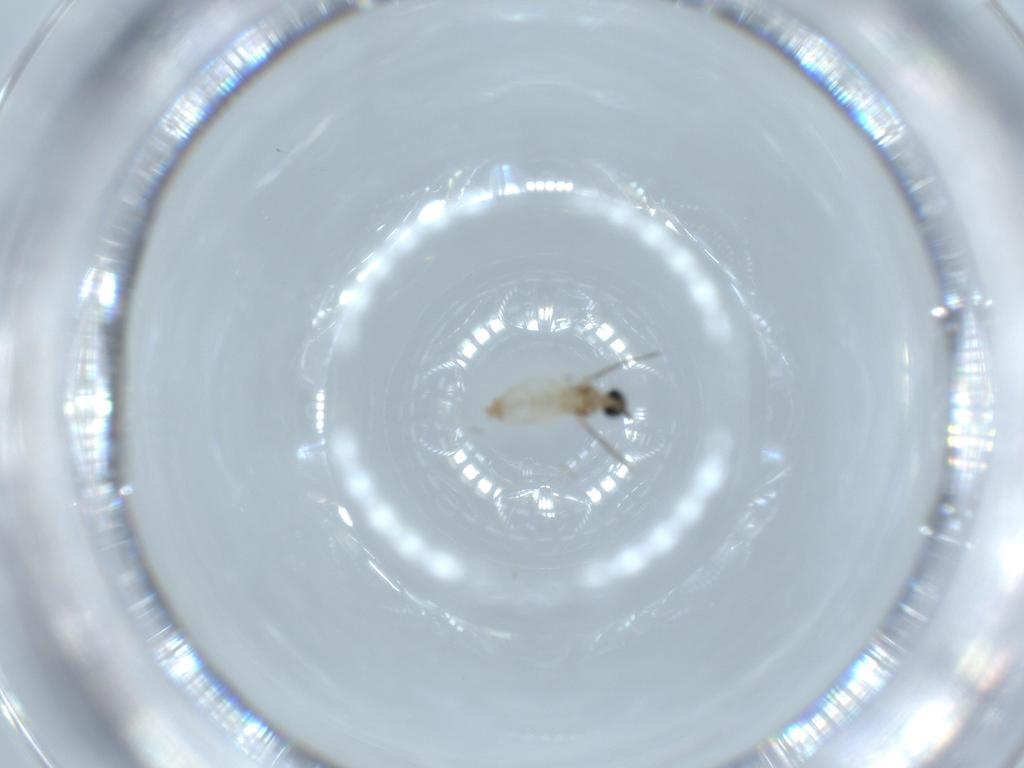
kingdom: Animalia
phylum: Arthropoda
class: Insecta
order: Diptera
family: Cecidomyiidae
